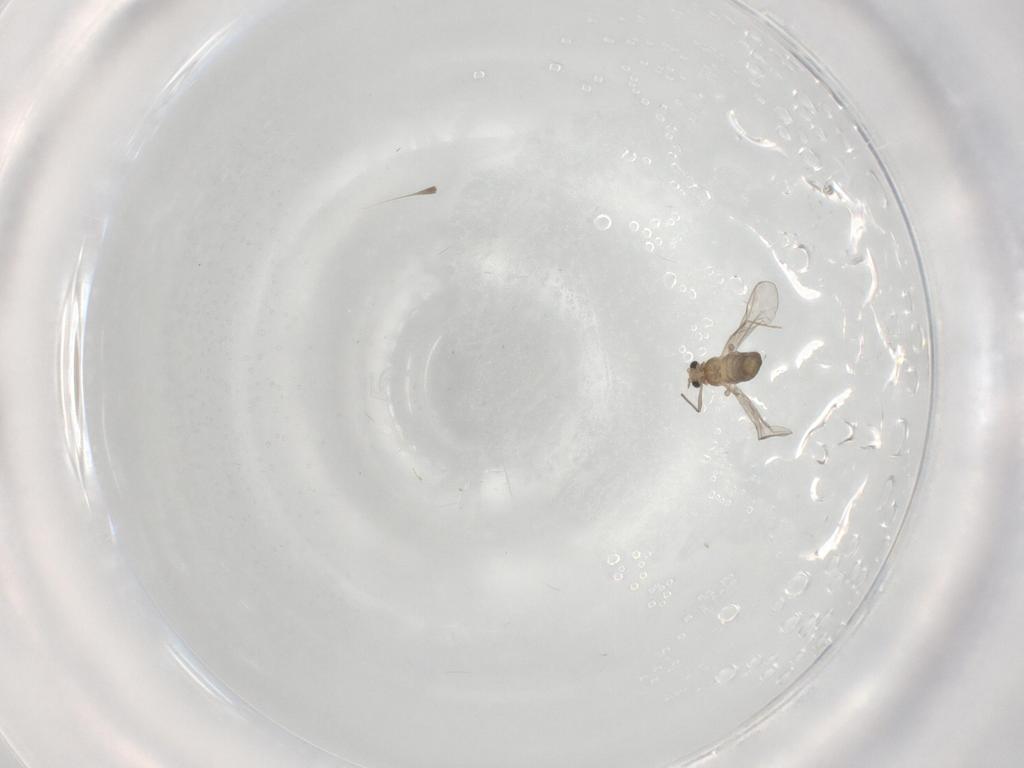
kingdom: Animalia
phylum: Arthropoda
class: Insecta
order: Diptera
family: Chironomidae
